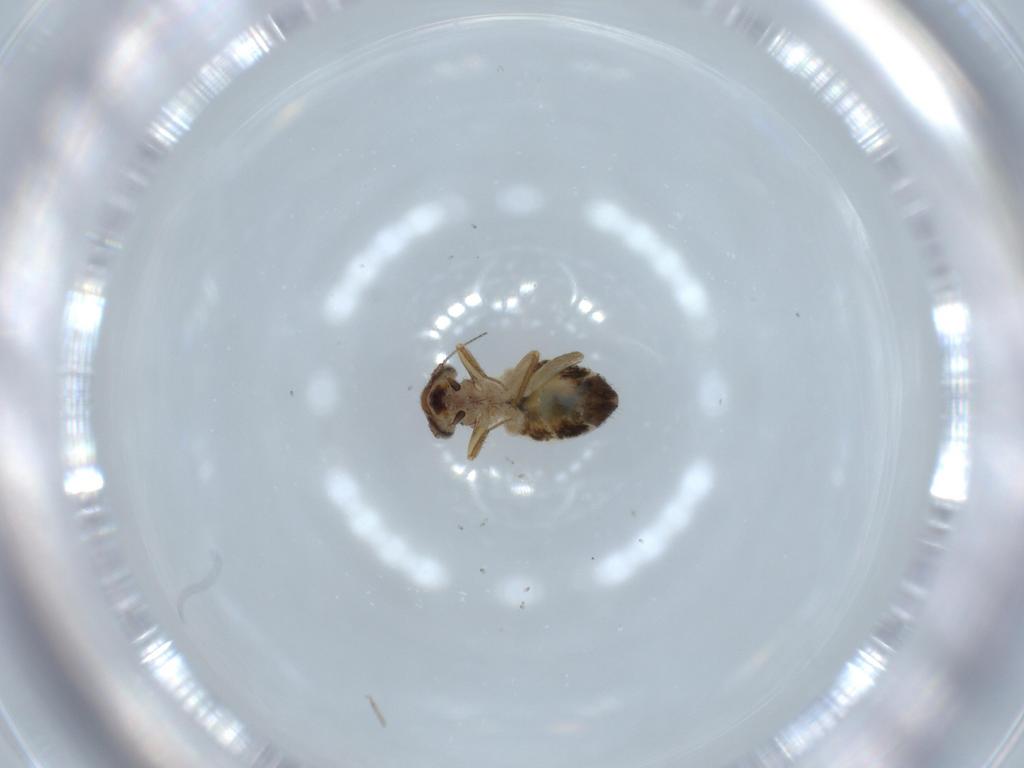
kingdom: Animalia
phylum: Arthropoda
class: Insecta
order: Psocodea
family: Lepidopsocidae
